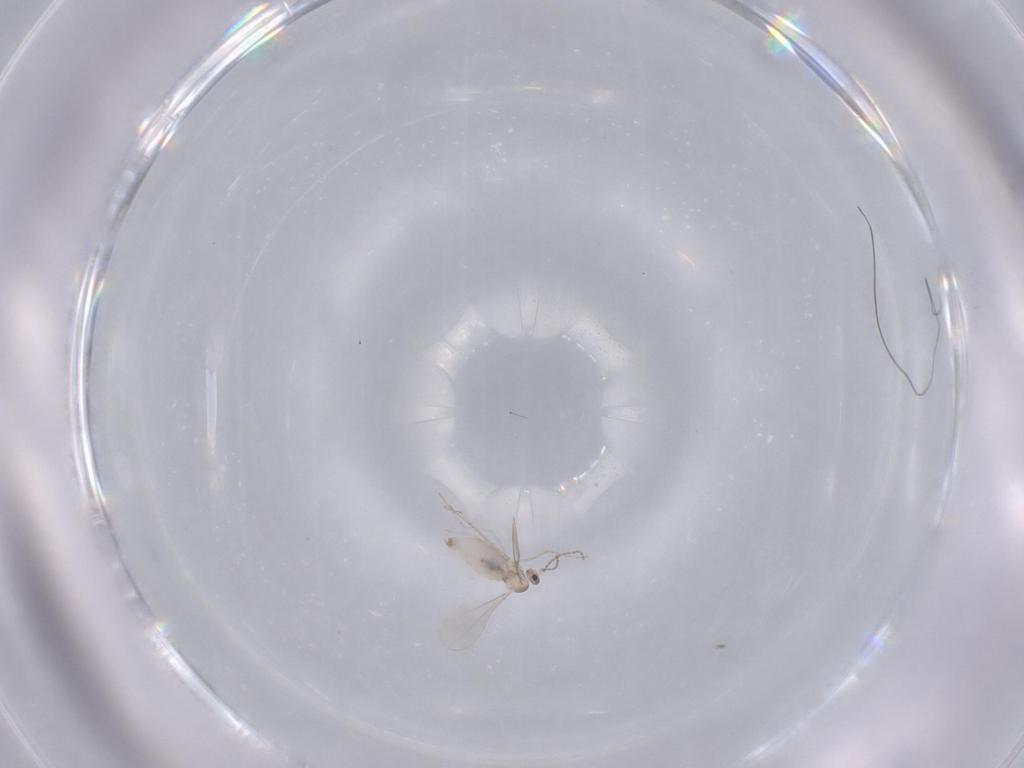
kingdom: Animalia
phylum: Arthropoda
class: Insecta
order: Diptera
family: Cecidomyiidae
